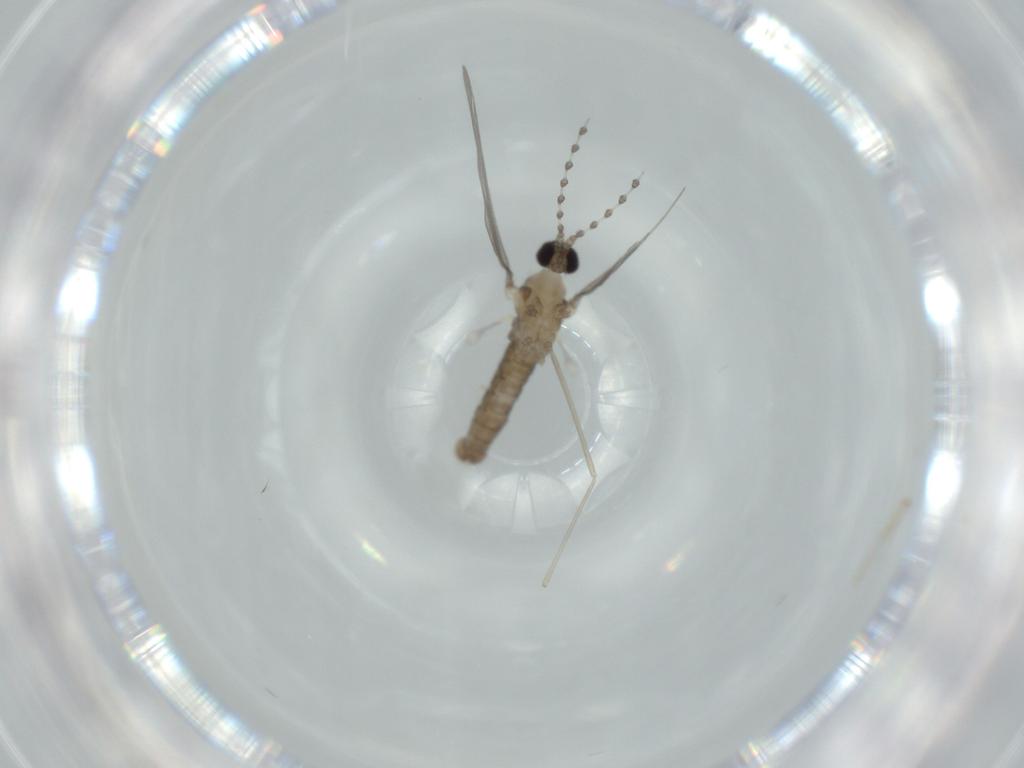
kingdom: Animalia
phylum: Arthropoda
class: Insecta
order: Diptera
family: Cecidomyiidae
